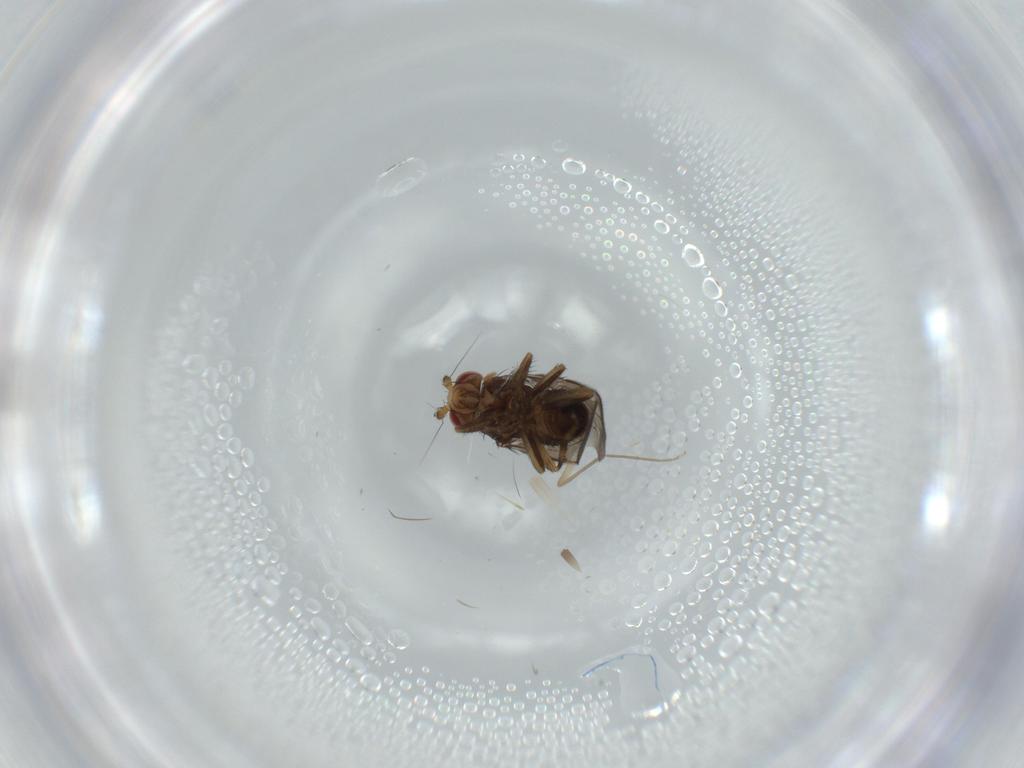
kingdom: Animalia
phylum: Arthropoda
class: Insecta
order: Diptera
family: Chironomidae
